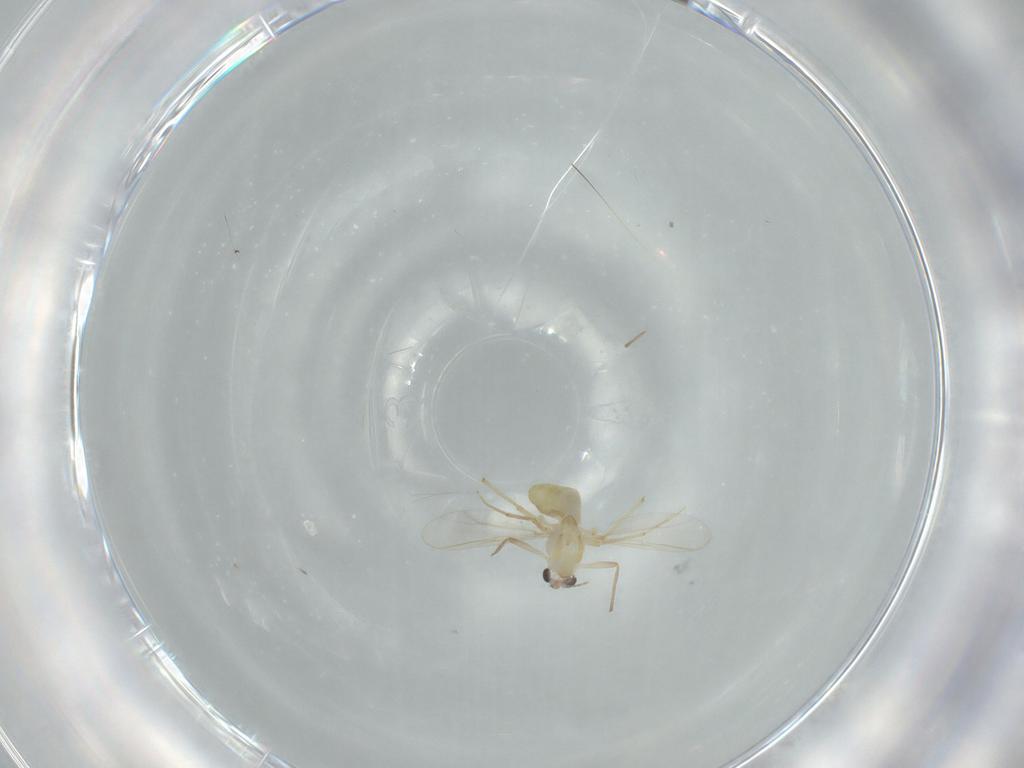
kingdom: Animalia
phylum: Arthropoda
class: Insecta
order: Diptera
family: Chironomidae
